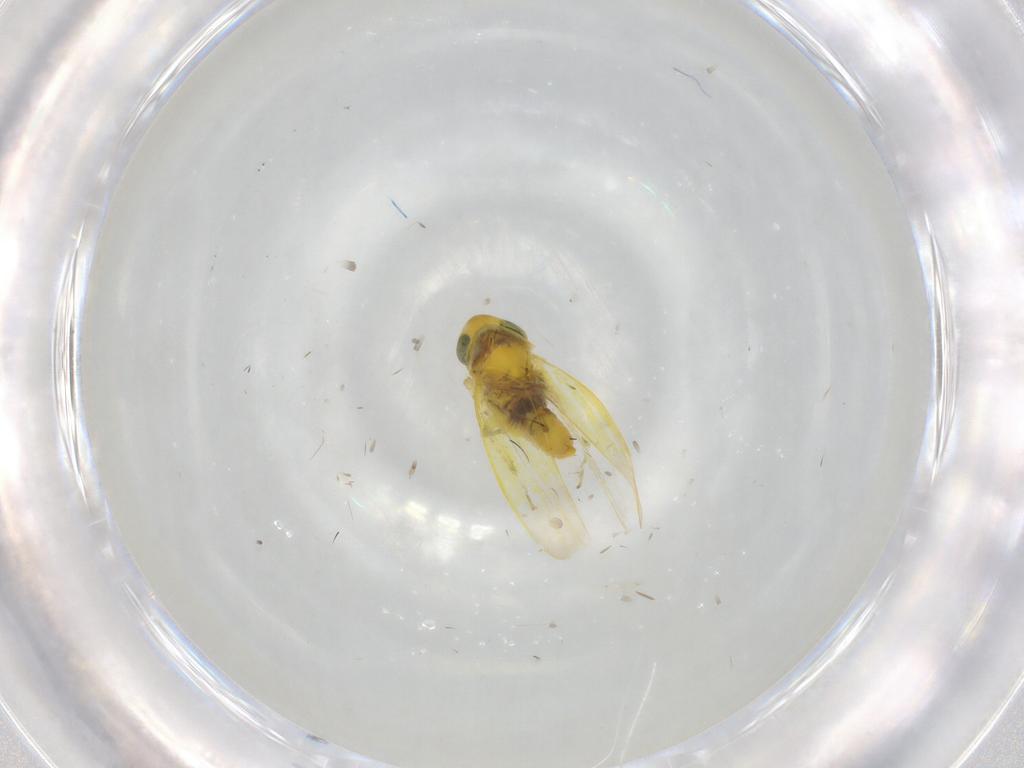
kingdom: Animalia
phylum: Arthropoda
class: Insecta
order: Hemiptera
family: Cicadellidae
